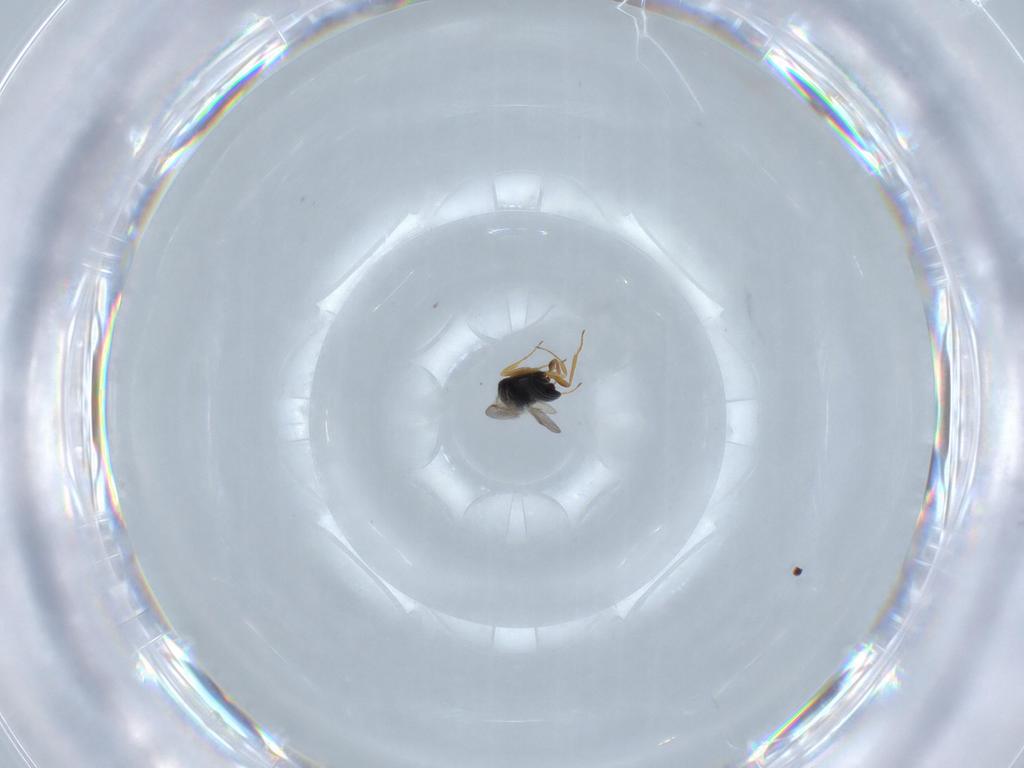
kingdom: Animalia
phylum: Arthropoda
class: Insecta
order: Hymenoptera
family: Scelionidae
